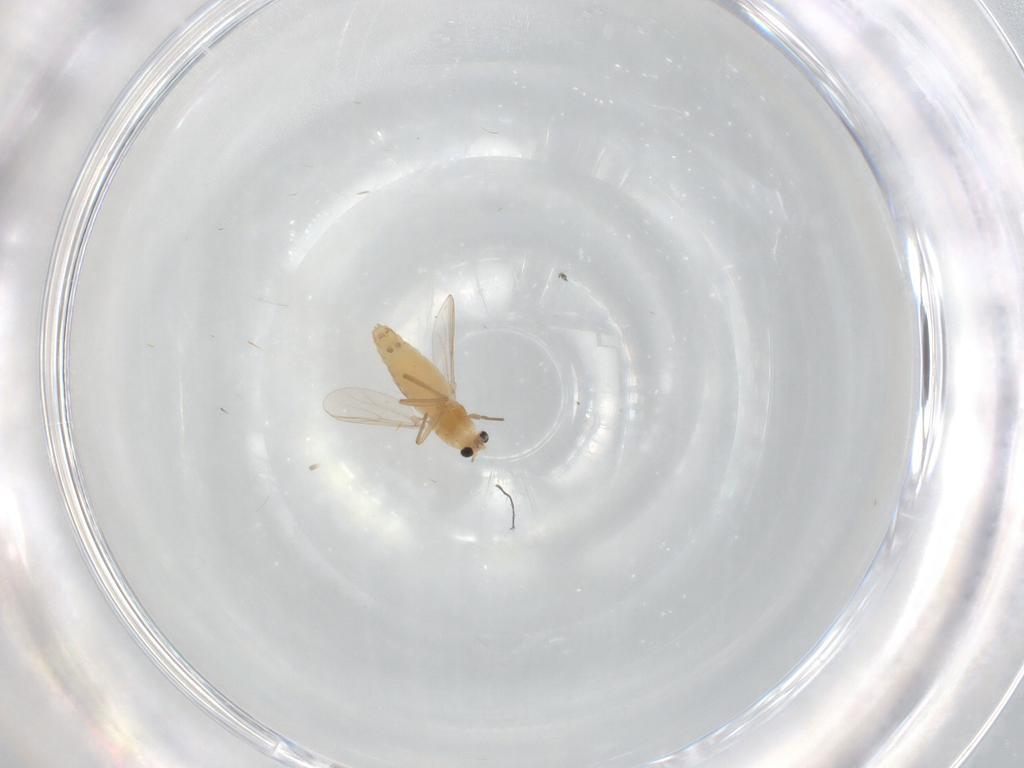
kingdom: Animalia
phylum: Arthropoda
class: Insecta
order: Diptera
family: Chironomidae
